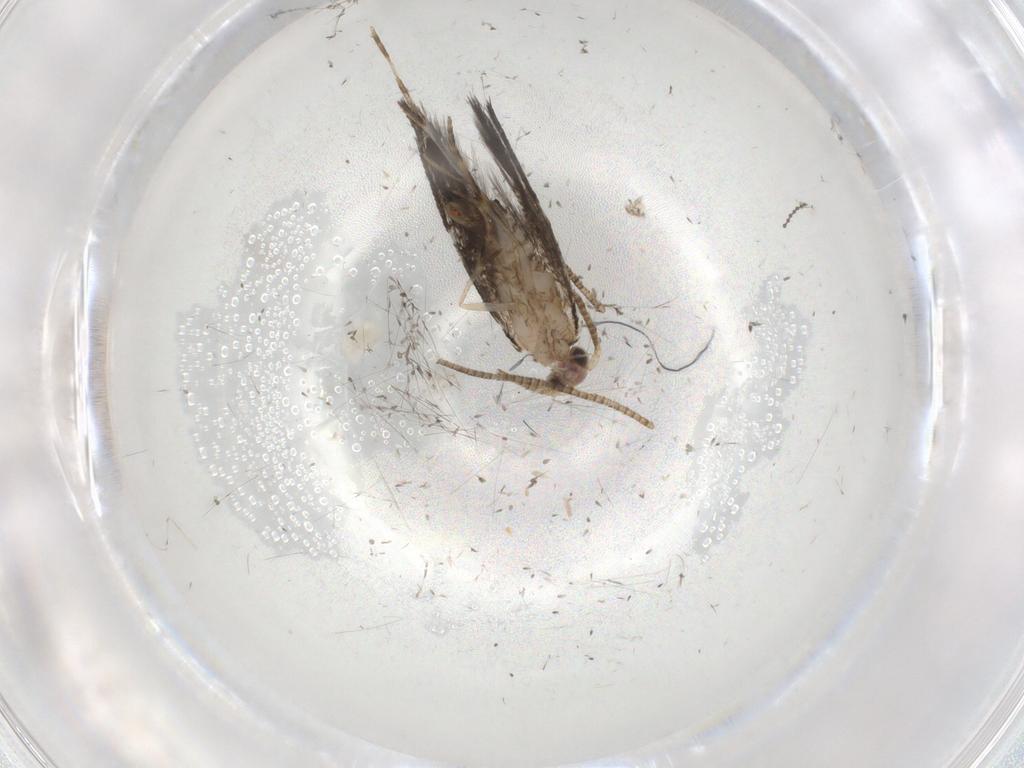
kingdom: Animalia
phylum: Arthropoda
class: Insecta
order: Lepidoptera
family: Tineidae
